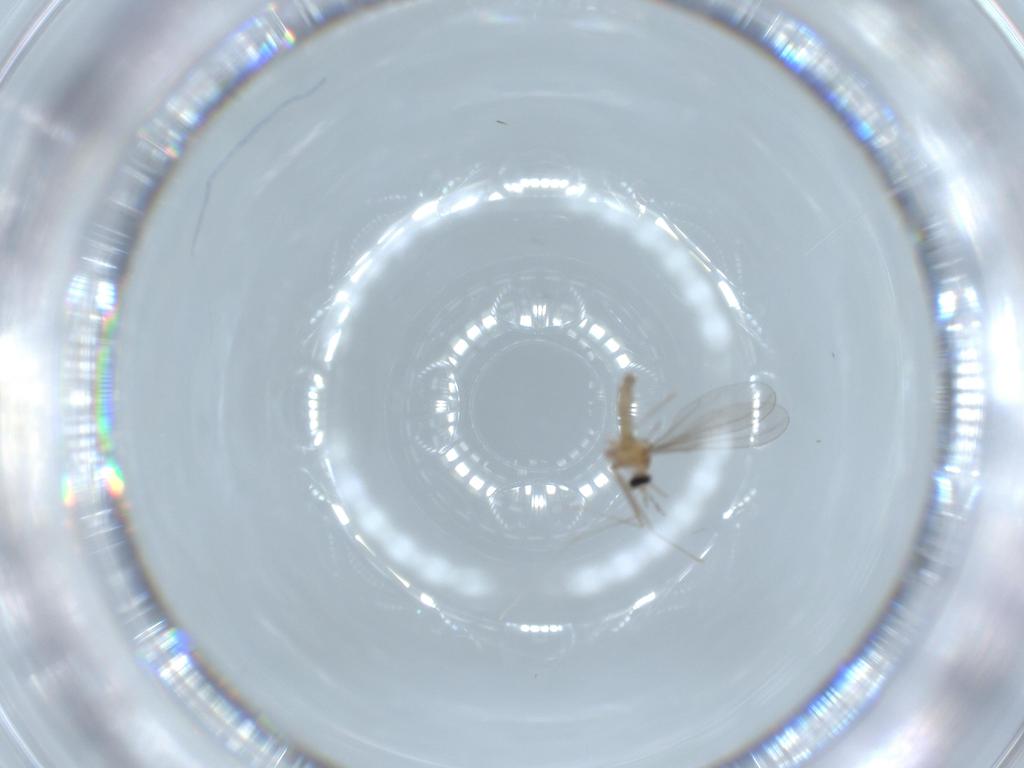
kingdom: Animalia
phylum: Arthropoda
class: Insecta
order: Diptera
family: Cecidomyiidae
